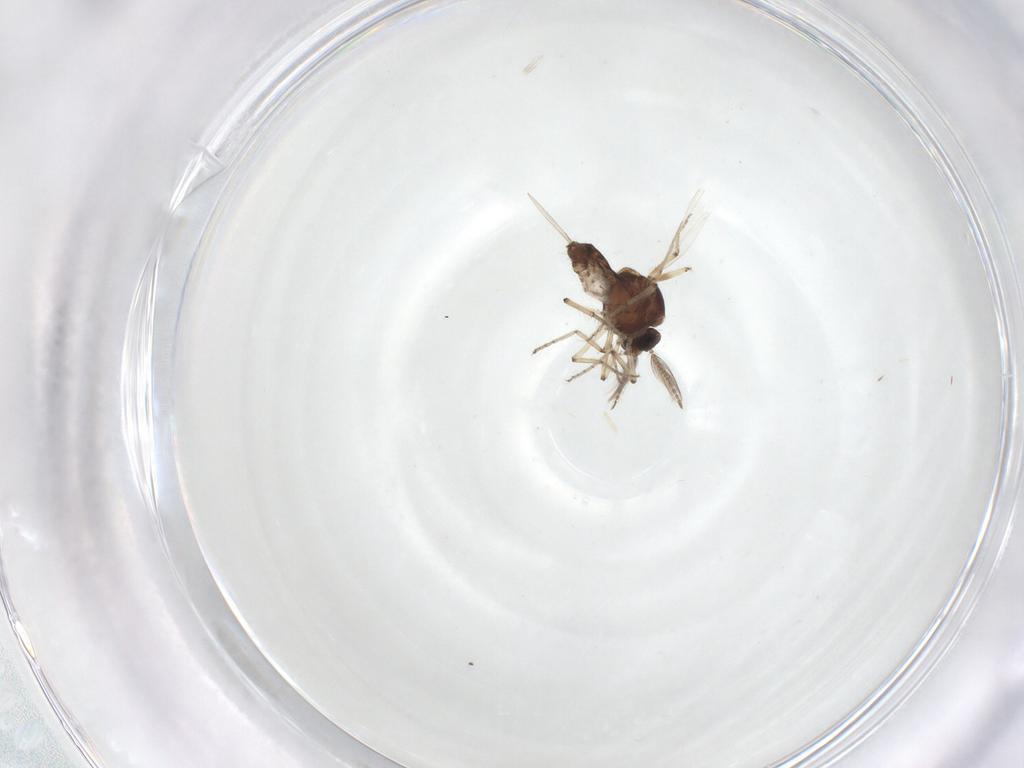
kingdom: Animalia
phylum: Arthropoda
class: Insecta
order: Diptera
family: Ceratopogonidae
